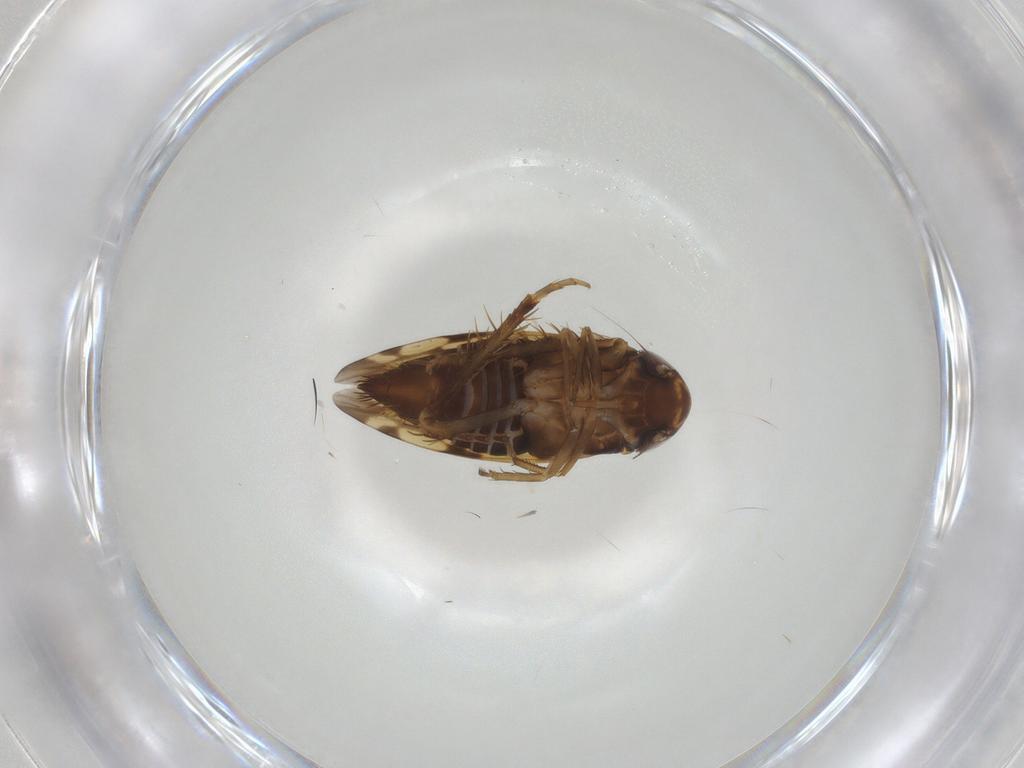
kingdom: Animalia
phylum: Arthropoda
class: Insecta
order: Hemiptera
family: Cicadellidae
